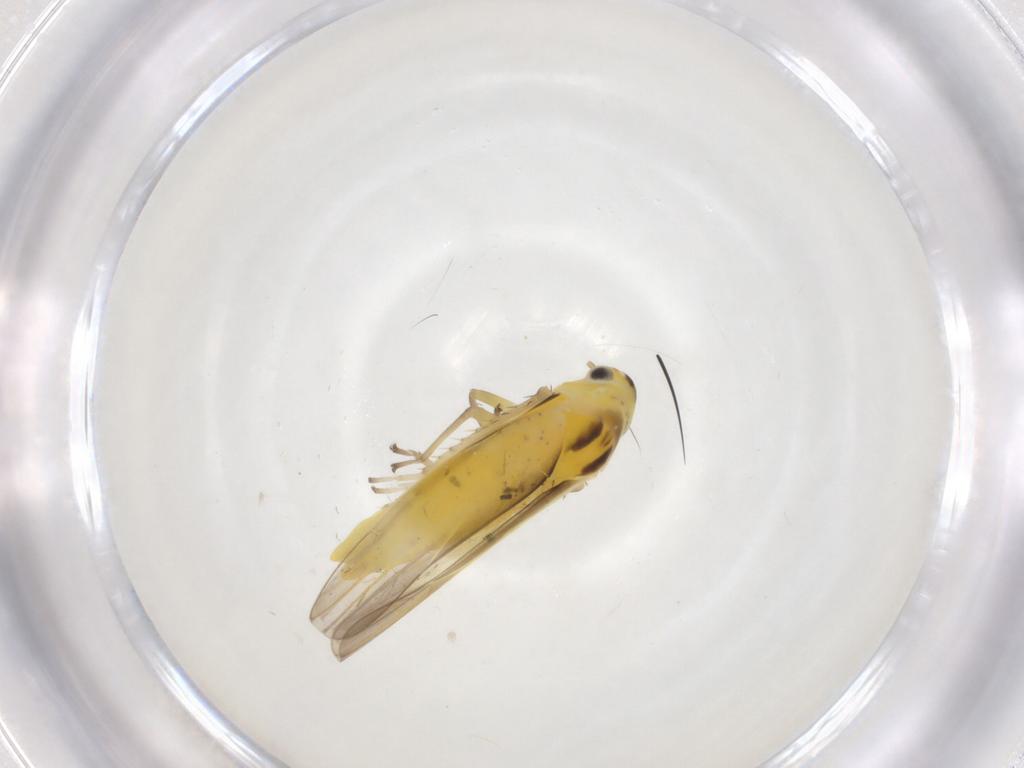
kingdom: Animalia
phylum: Arthropoda
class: Insecta
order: Hemiptera
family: Cicadellidae
